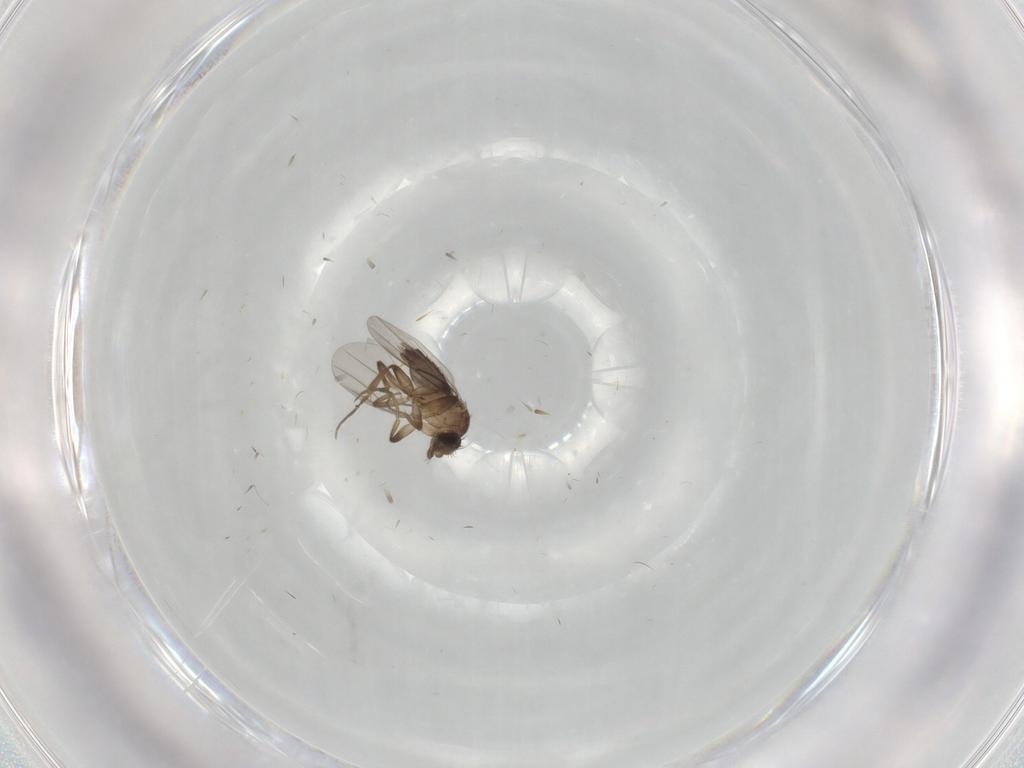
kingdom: Animalia
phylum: Arthropoda
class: Insecta
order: Diptera
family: Phoridae
